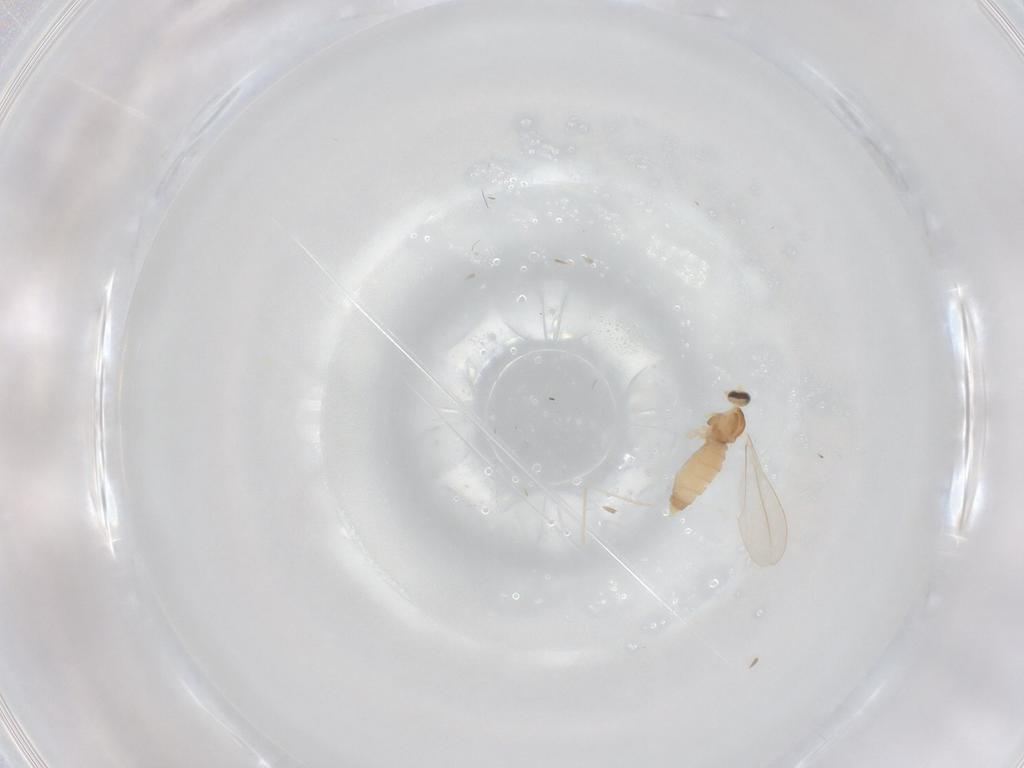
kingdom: Animalia
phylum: Arthropoda
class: Insecta
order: Diptera
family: Cecidomyiidae
